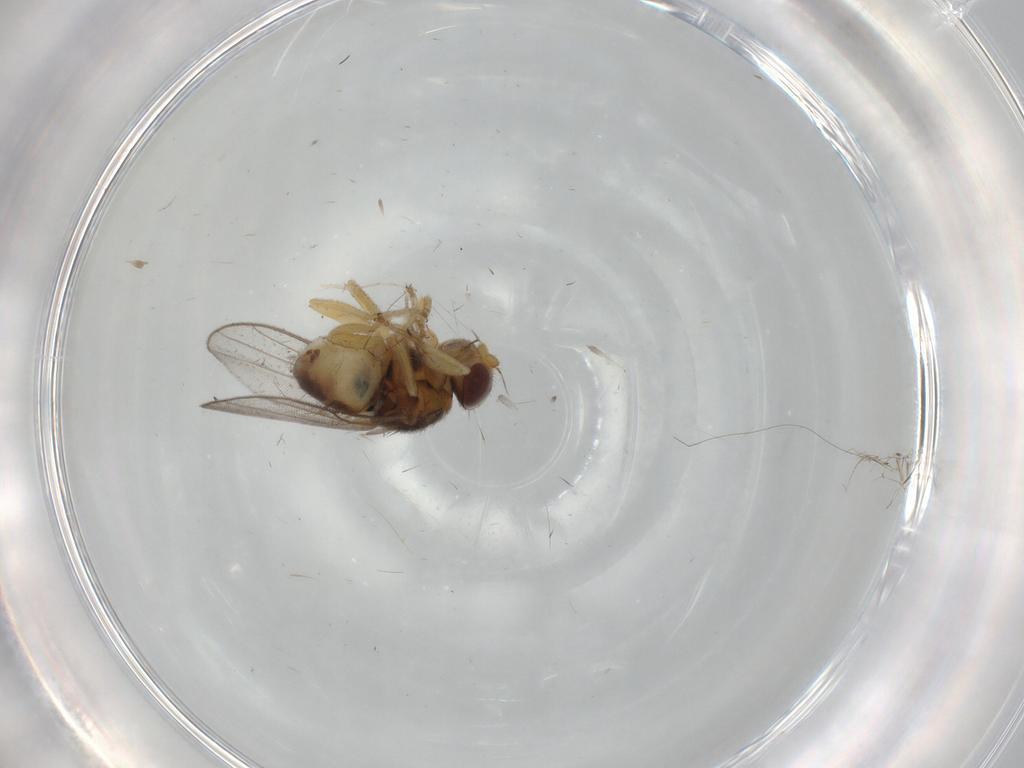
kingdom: Animalia
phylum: Arthropoda
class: Insecta
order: Diptera
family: Chloropidae
